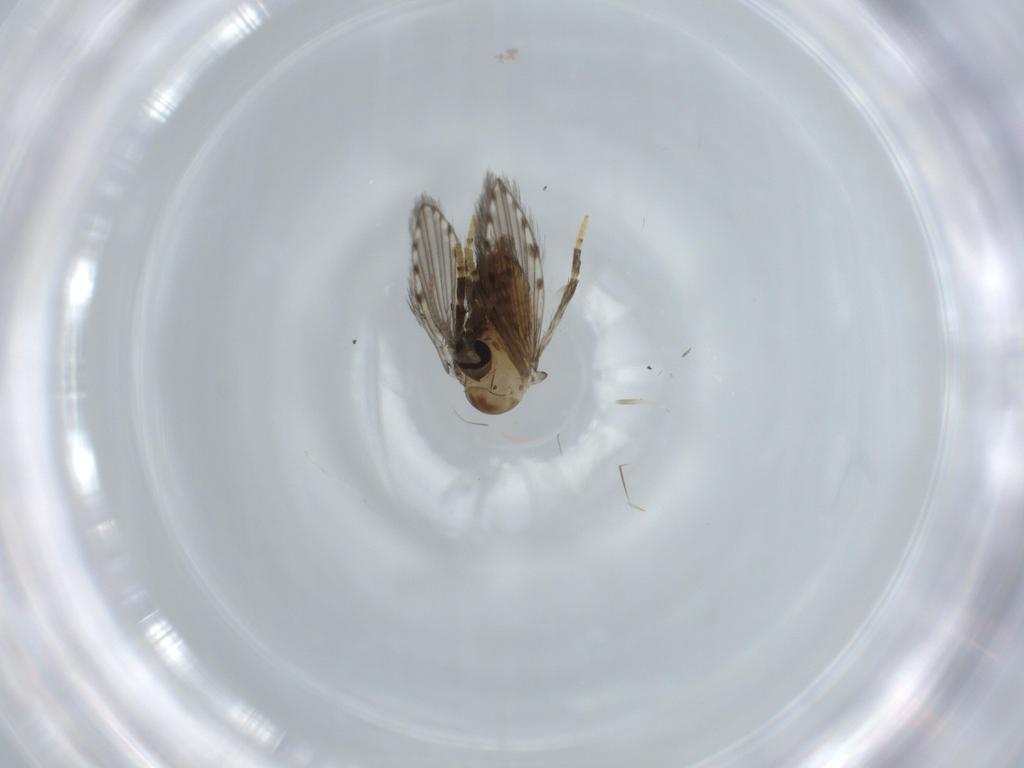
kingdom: Animalia
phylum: Arthropoda
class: Insecta
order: Diptera
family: Psychodidae
